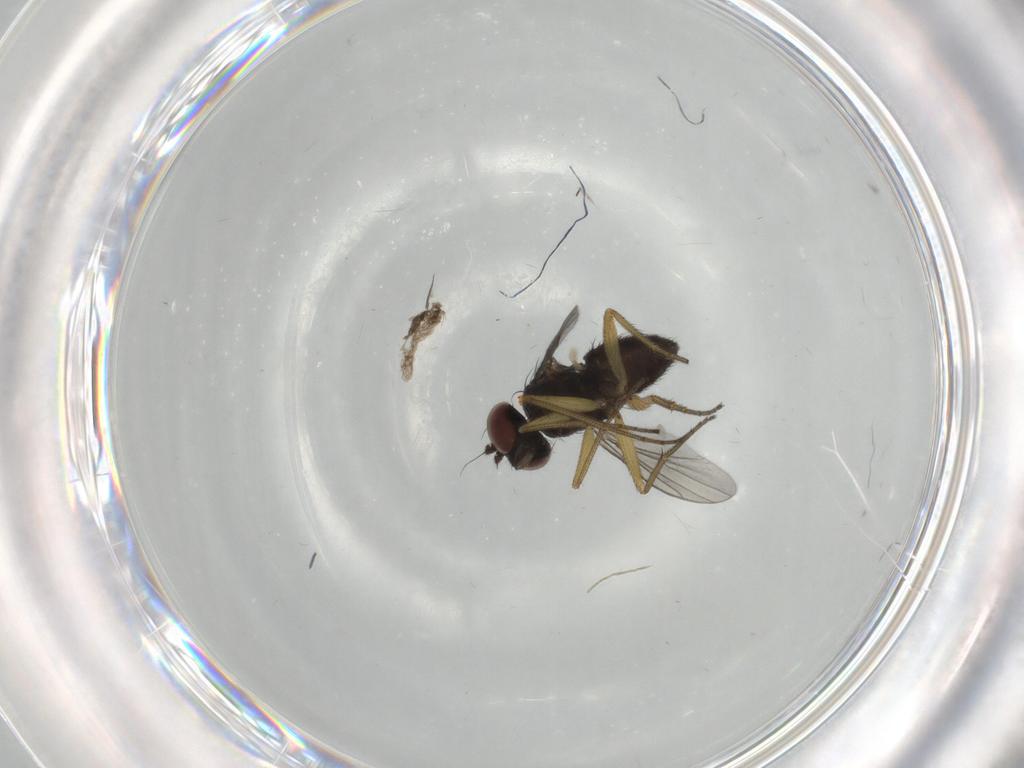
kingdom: Animalia
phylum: Arthropoda
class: Insecta
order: Diptera
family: Dolichopodidae
